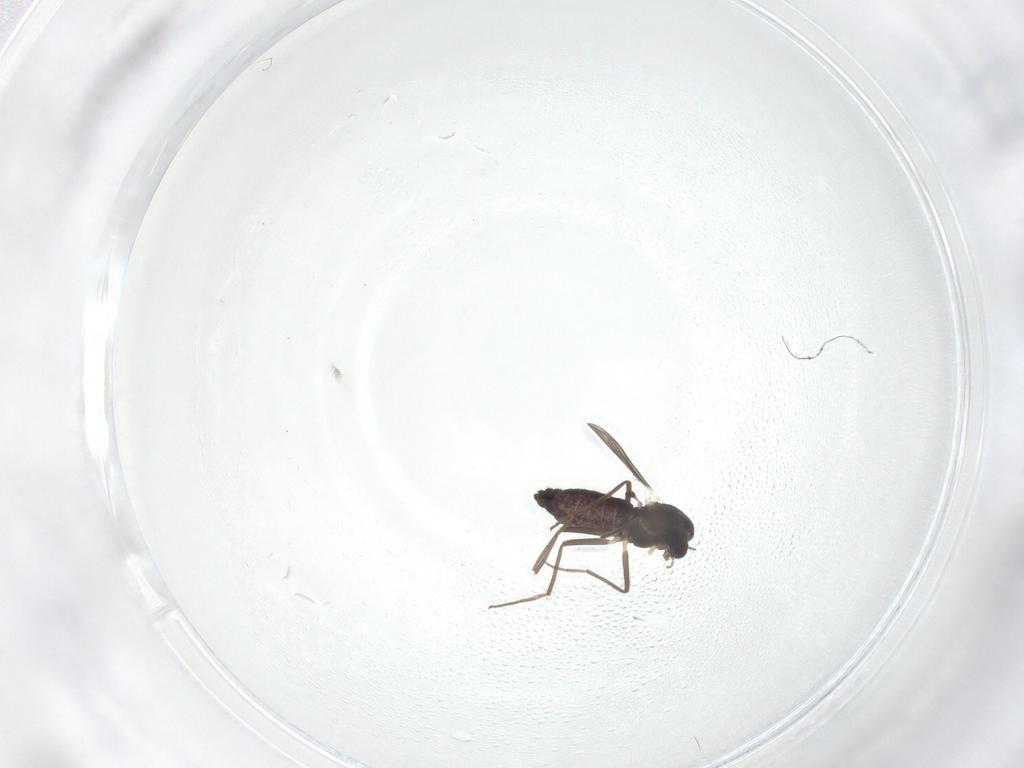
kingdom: Animalia
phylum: Arthropoda
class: Insecta
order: Diptera
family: Chironomidae
